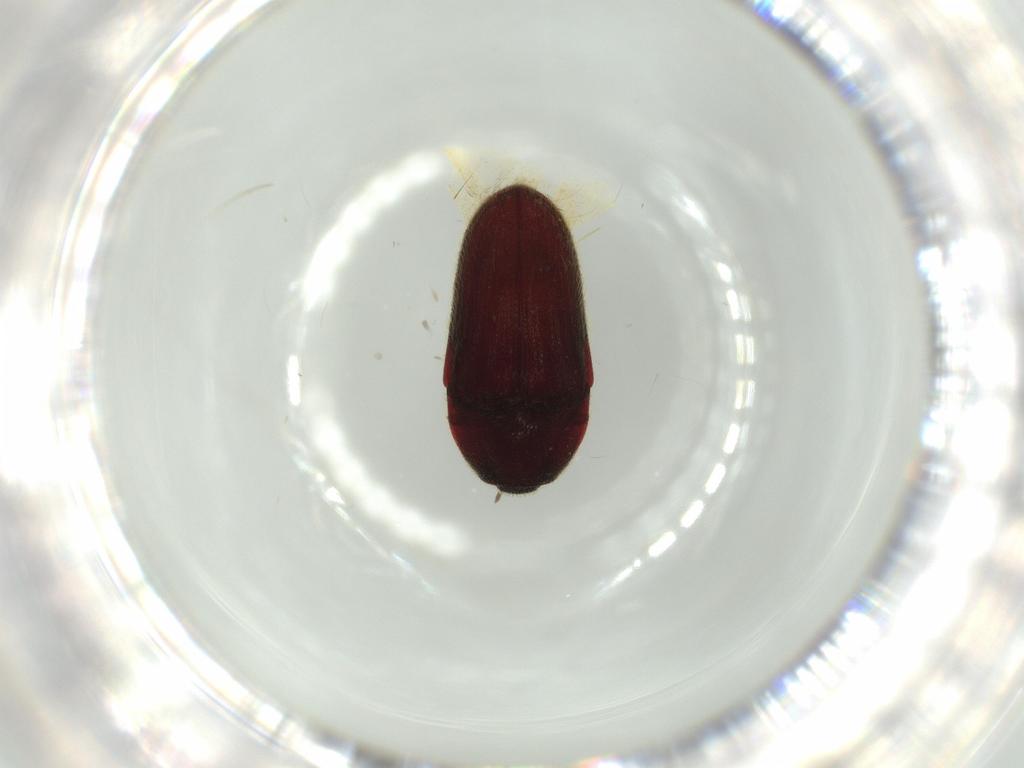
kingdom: Animalia
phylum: Arthropoda
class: Insecta
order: Coleoptera
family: Throscidae
